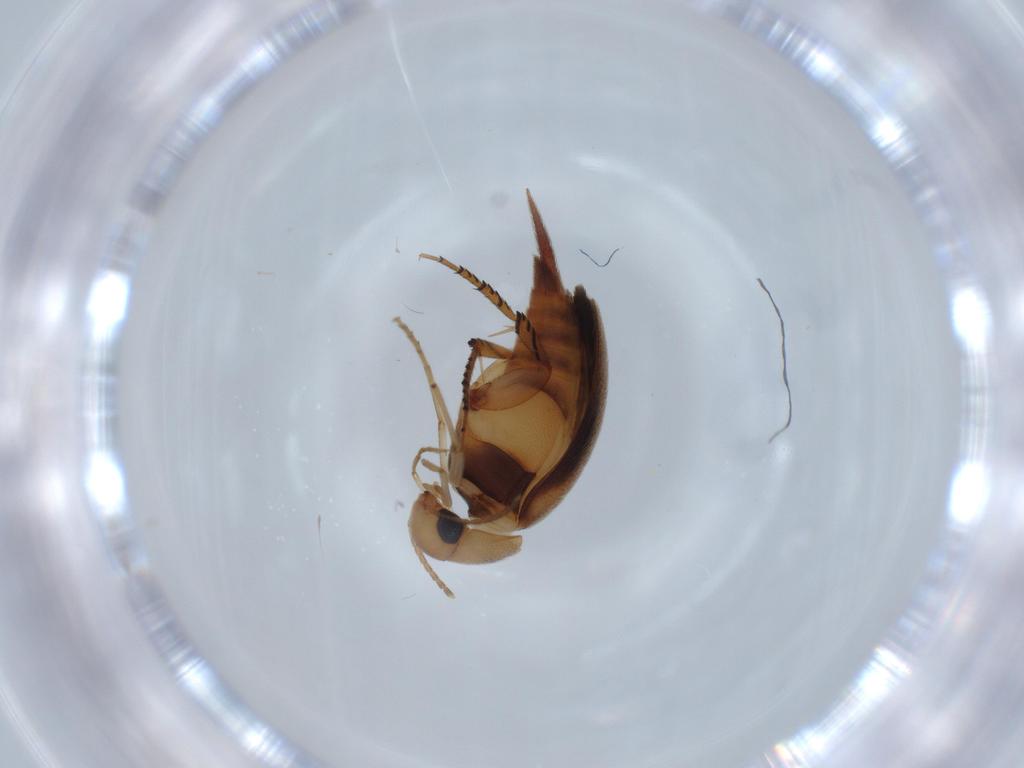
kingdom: Animalia
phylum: Arthropoda
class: Insecta
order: Coleoptera
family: Mordellidae
